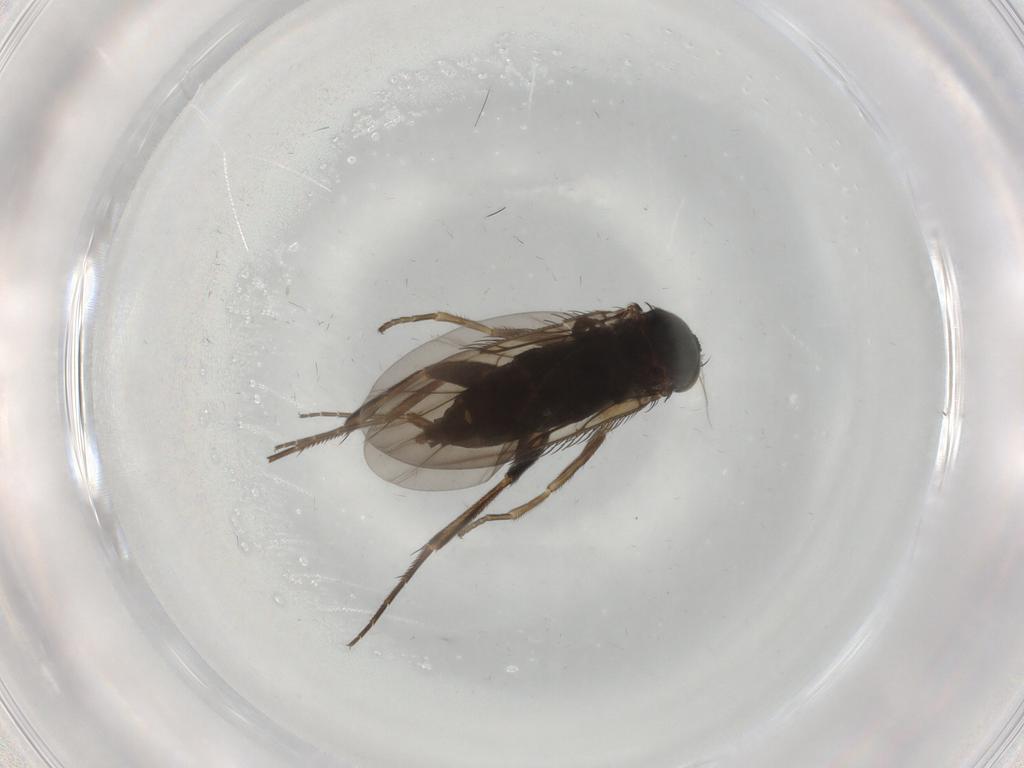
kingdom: Animalia
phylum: Arthropoda
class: Insecta
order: Diptera
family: Phoridae
